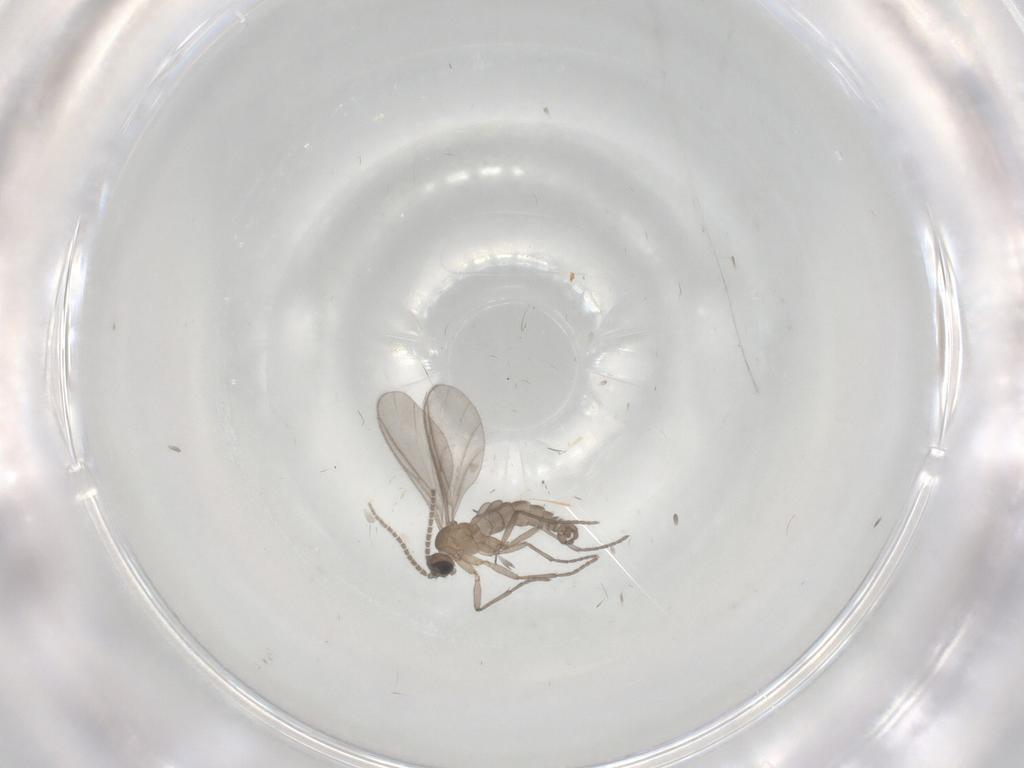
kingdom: Animalia
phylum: Arthropoda
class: Insecta
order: Diptera
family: Sciaridae
